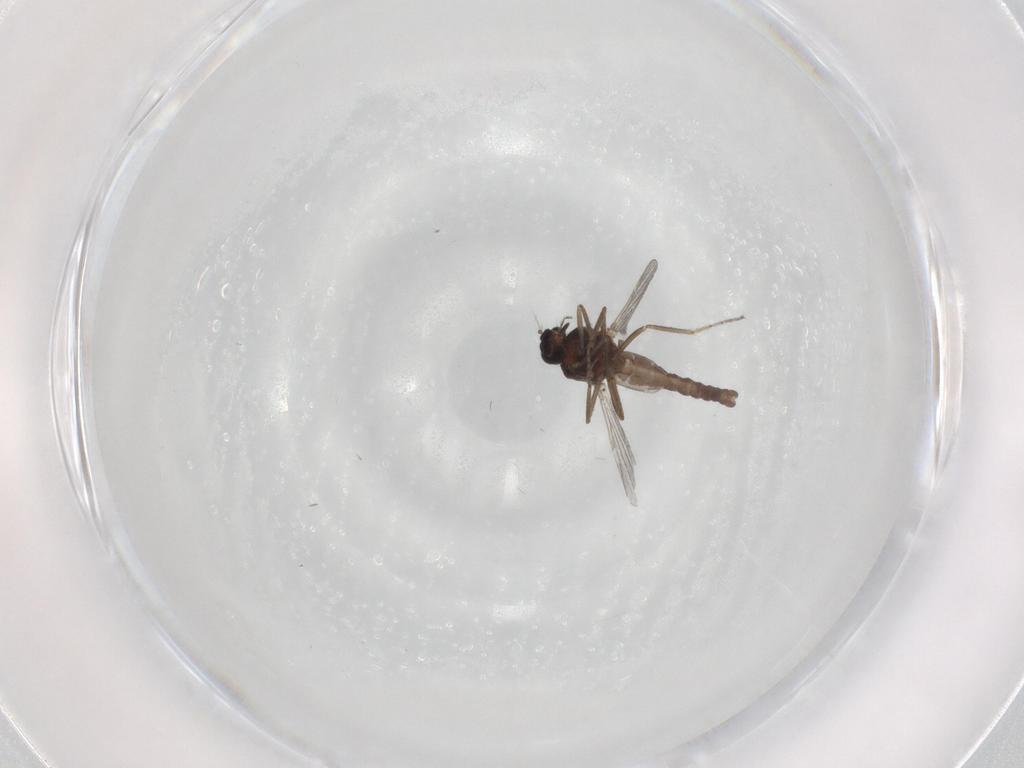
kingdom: Animalia
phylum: Arthropoda
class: Insecta
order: Diptera
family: Ceratopogonidae
